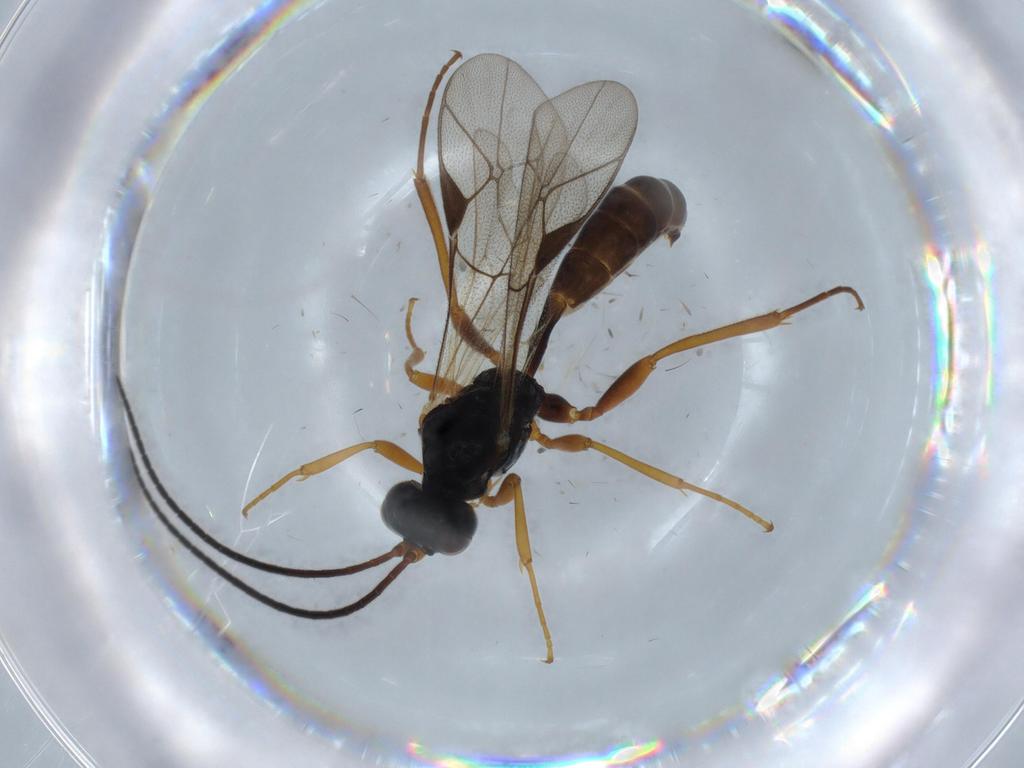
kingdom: Animalia
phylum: Arthropoda
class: Insecta
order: Hymenoptera
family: Ichneumonidae
